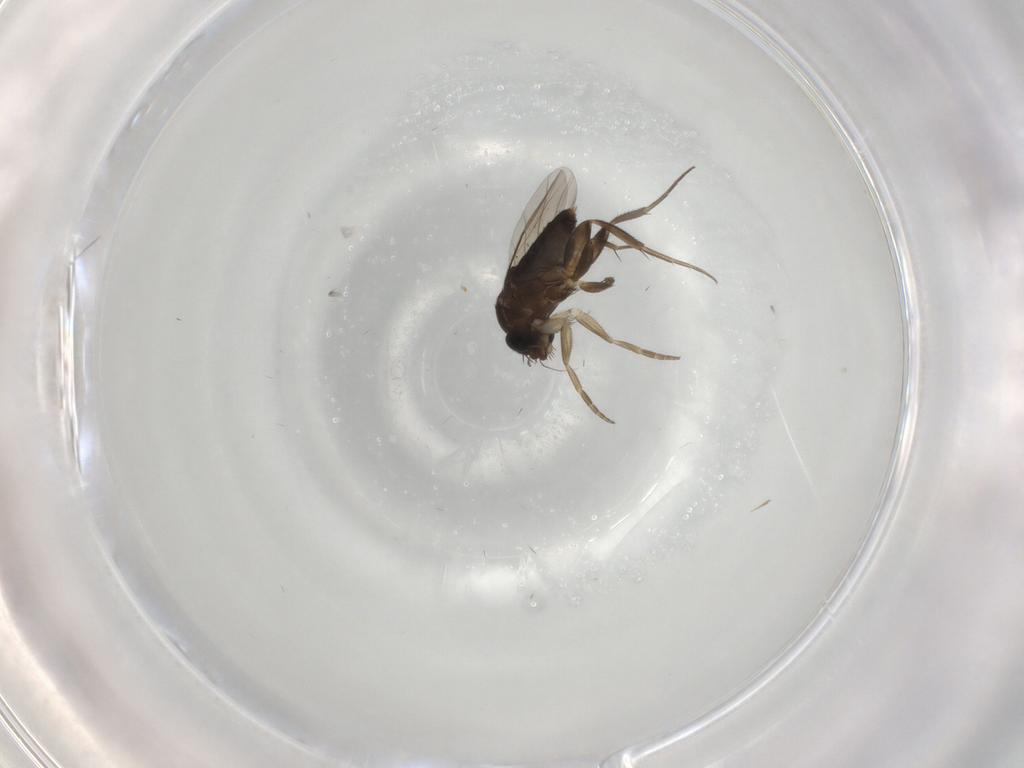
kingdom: Animalia
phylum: Arthropoda
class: Insecta
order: Diptera
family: Phoridae
